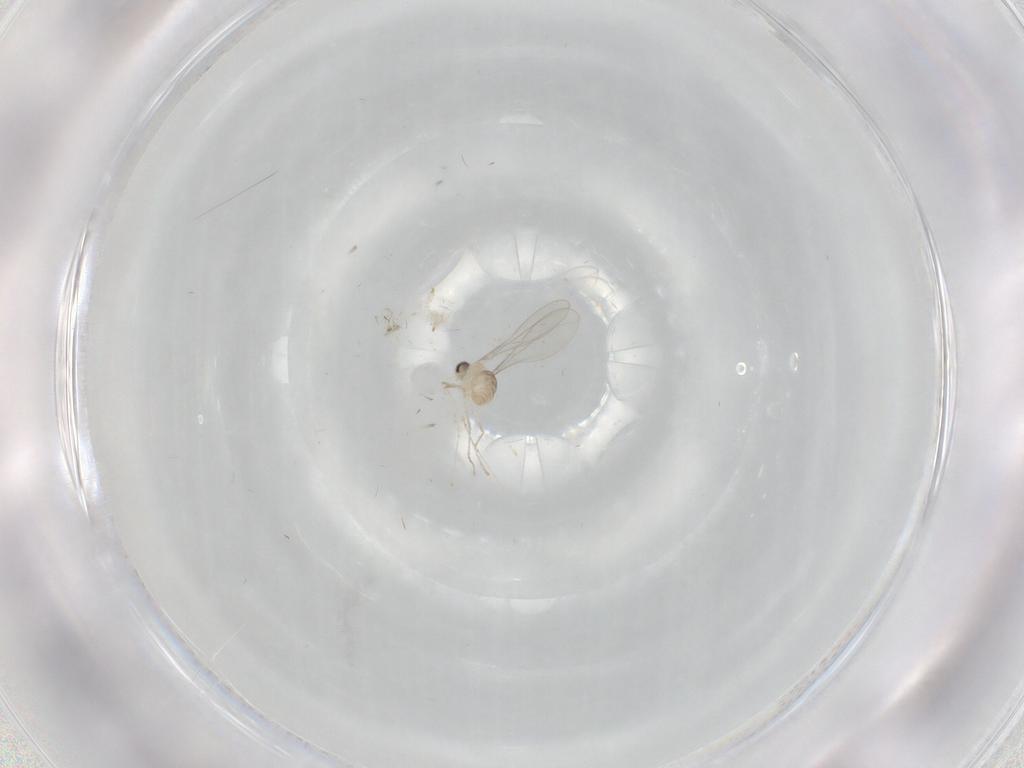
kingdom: Animalia
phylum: Arthropoda
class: Insecta
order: Diptera
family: Cecidomyiidae
